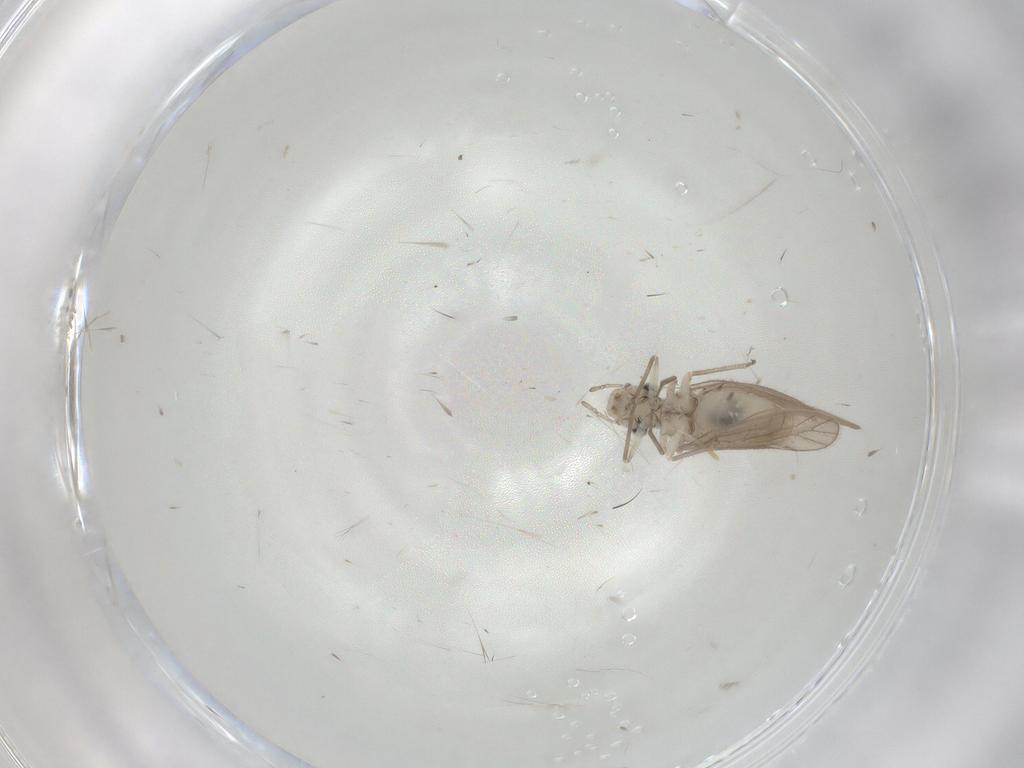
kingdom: Animalia
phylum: Arthropoda
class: Insecta
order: Psocodea
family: Caeciliusidae
